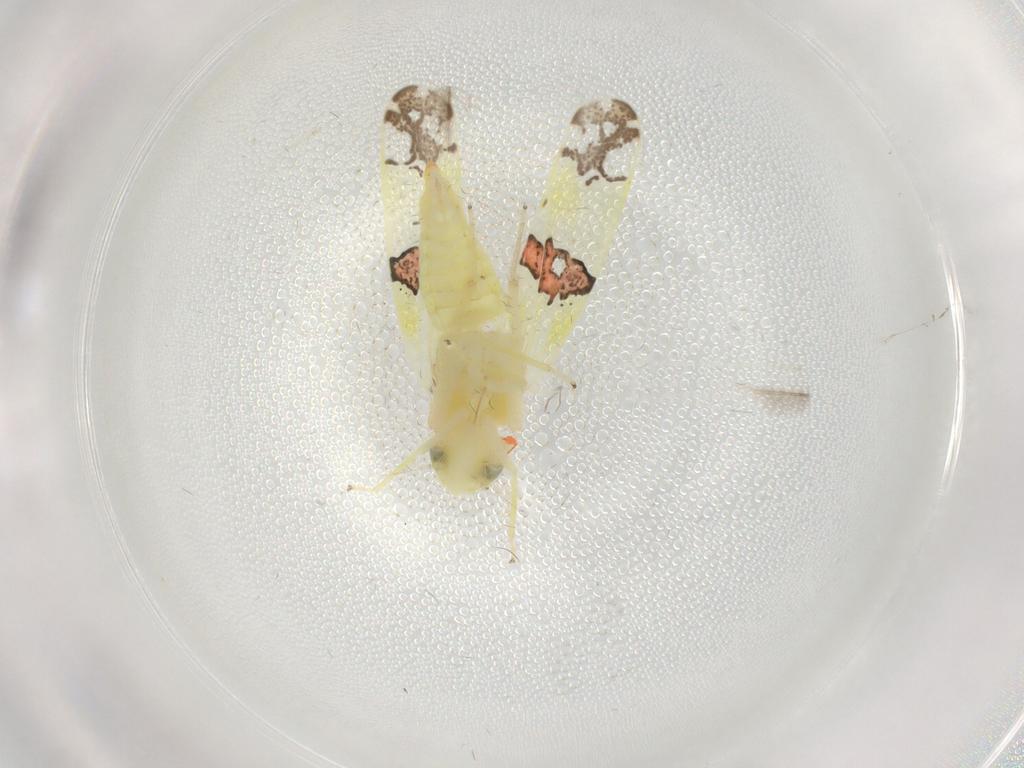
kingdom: Animalia
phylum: Arthropoda
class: Insecta
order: Hemiptera
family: Cicadellidae
